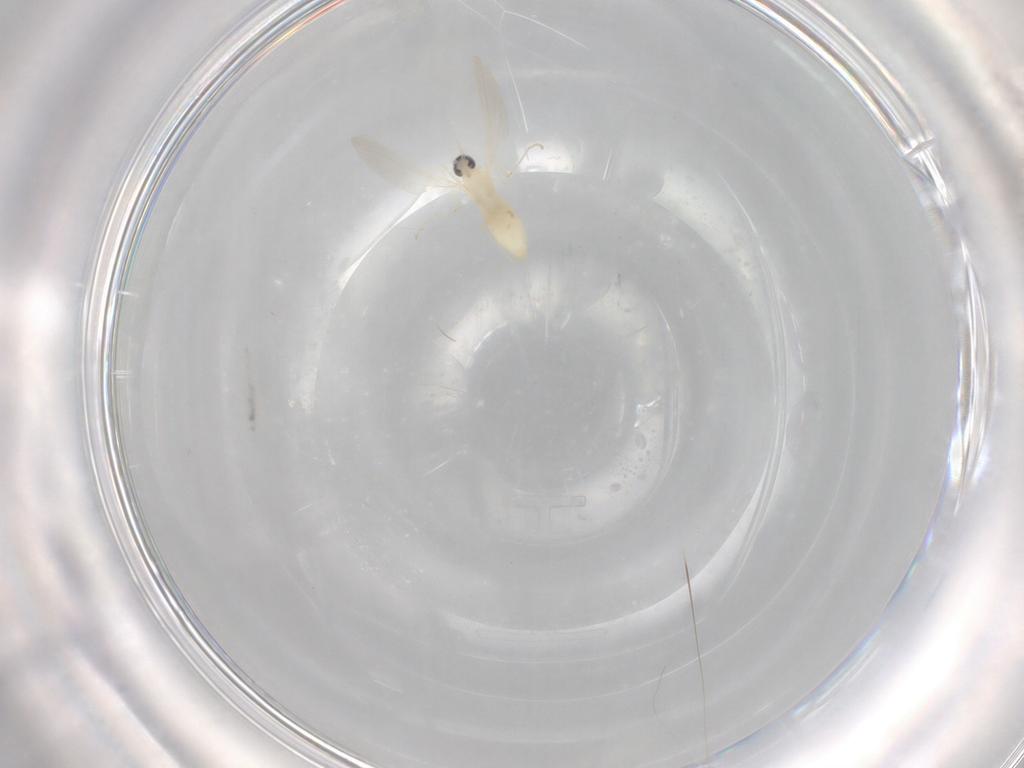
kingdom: Animalia
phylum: Arthropoda
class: Insecta
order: Diptera
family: Cecidomyiidae
